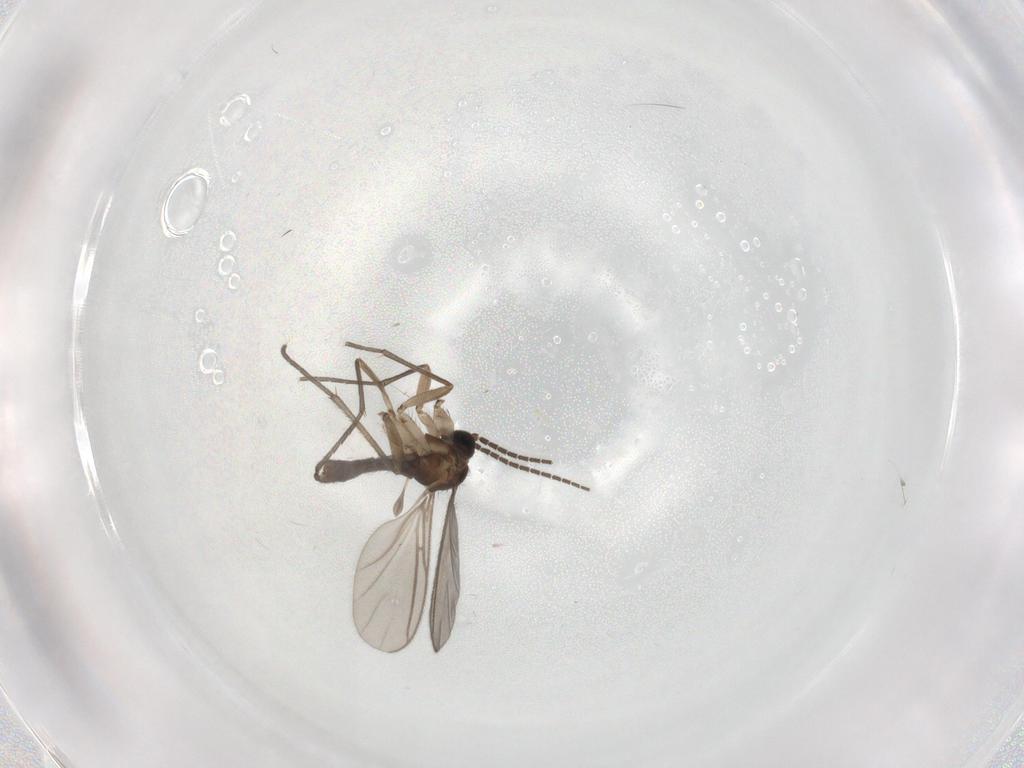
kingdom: Animalia
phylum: Arthropoda
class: Insecta
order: Diptera
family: Sciaridae
